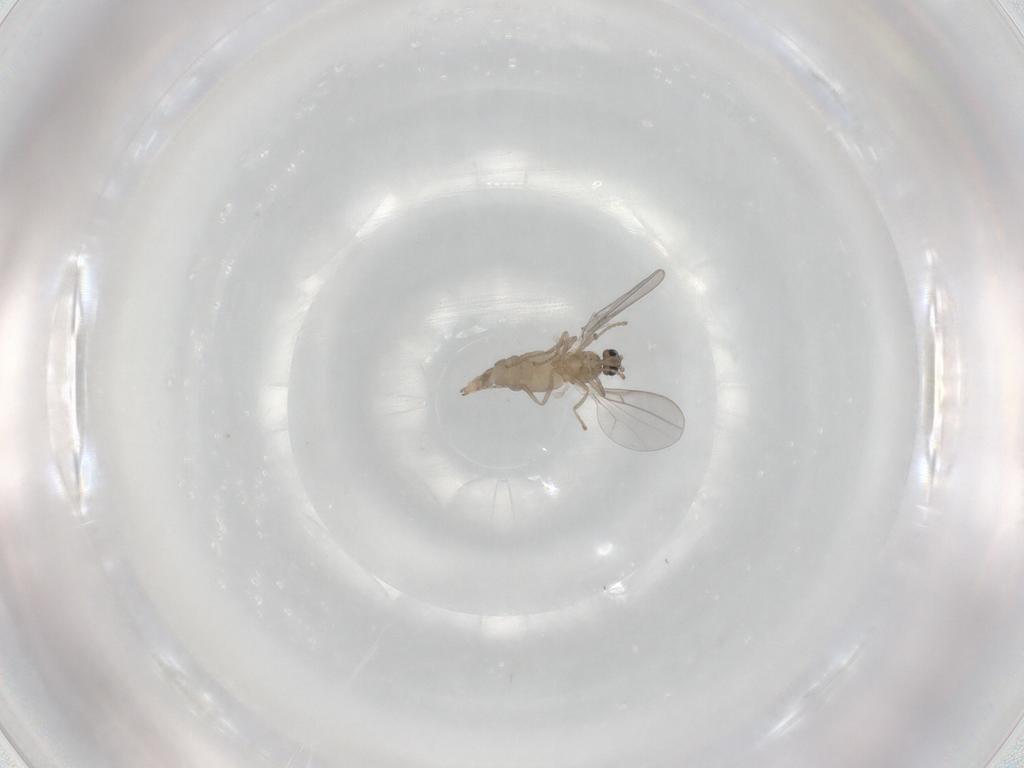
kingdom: Animalia
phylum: Arthropoda
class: Insecta
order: Diptera
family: Cecidomyiidae
